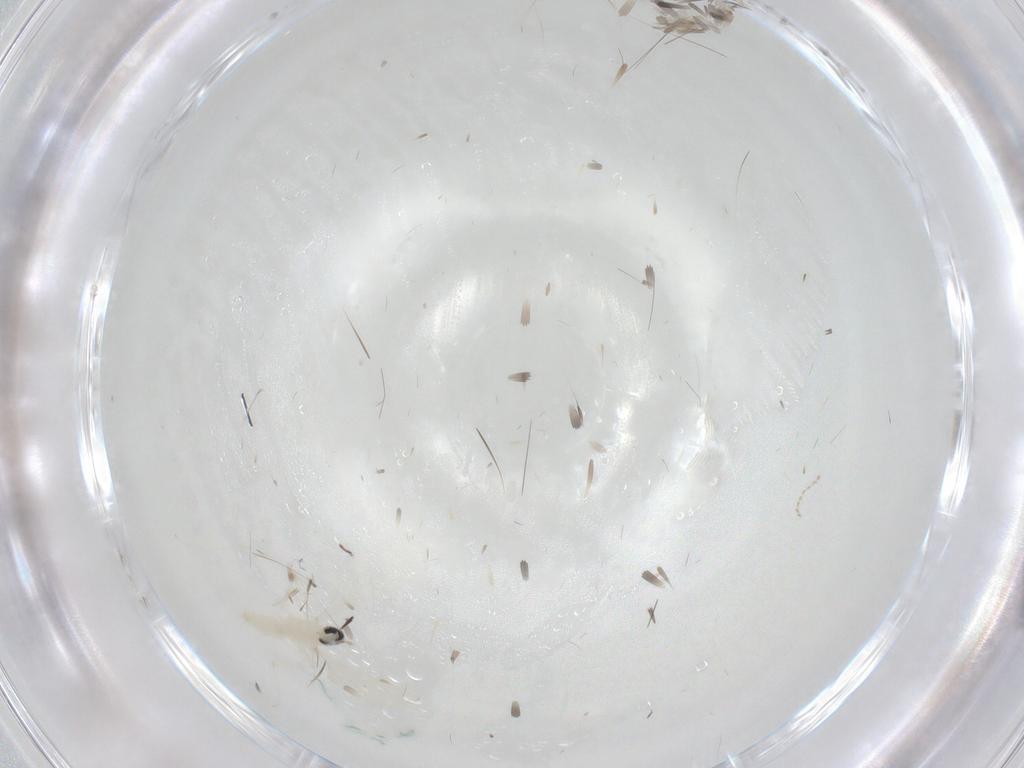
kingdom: Animalia
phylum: Arthropoda
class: Insecta
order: Diptera
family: Cecidomyiidae
